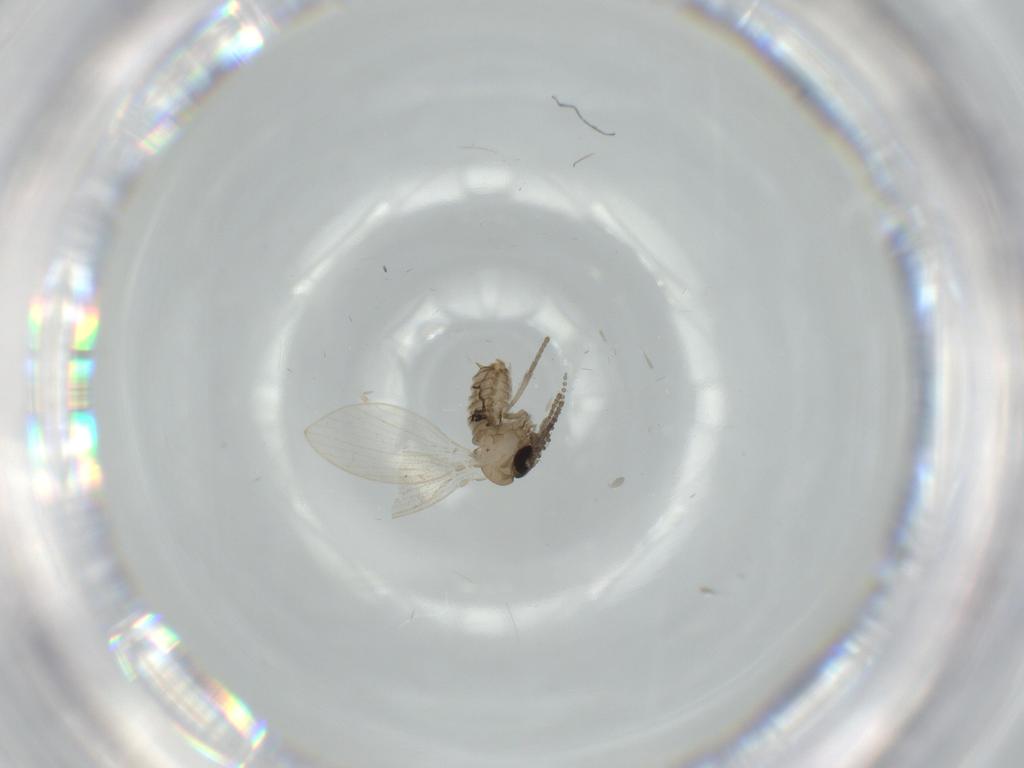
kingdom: Animalia
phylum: Arthropoda
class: Insecta
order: Diptera
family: Psychodidae
